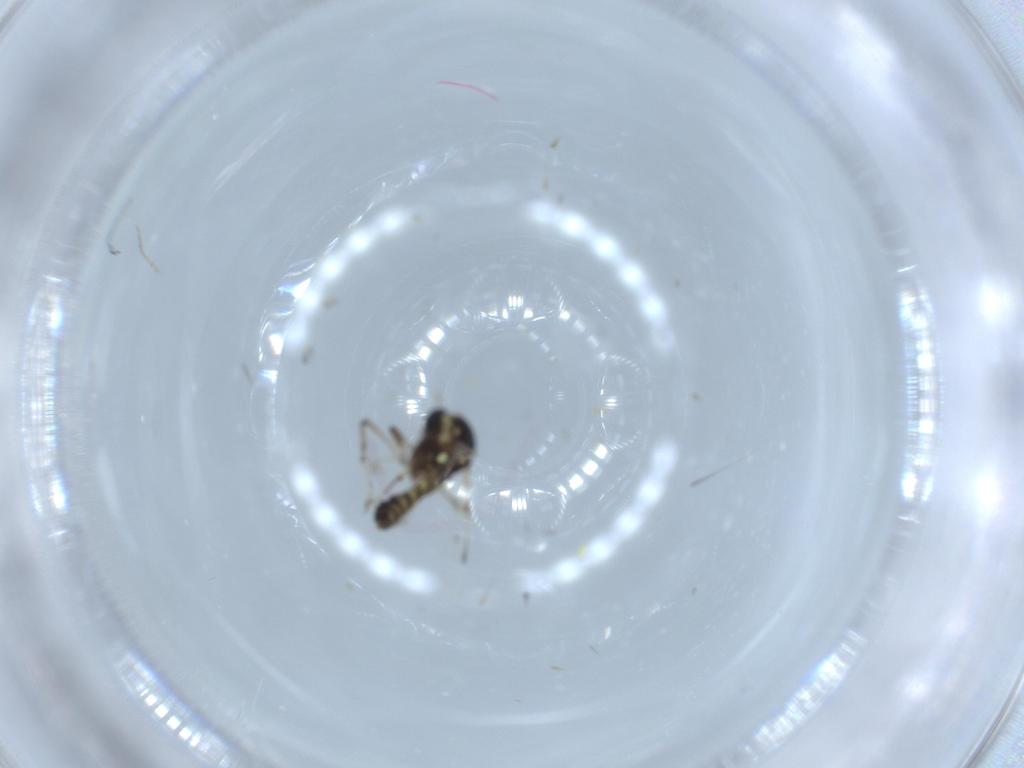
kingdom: Animalia
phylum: Arthropoda
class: Insecta
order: Diptera
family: Ceratopogonidae
